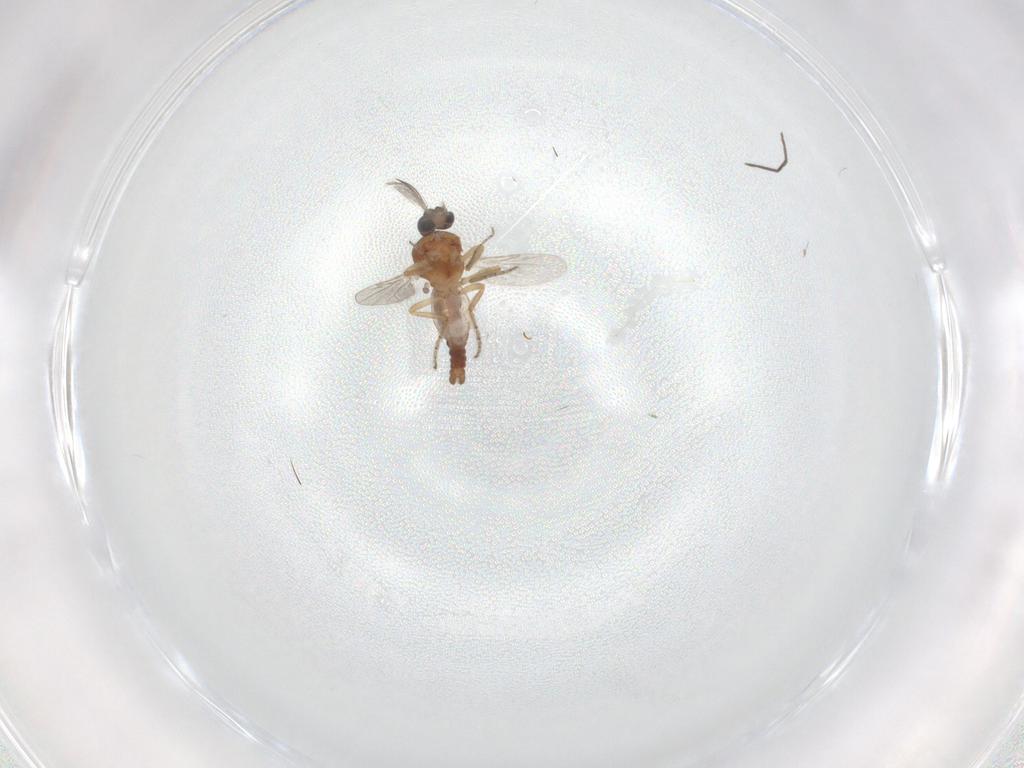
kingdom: Animalia
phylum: Arthropoda
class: Insecta
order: Diptera
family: Ceratopogonidae
